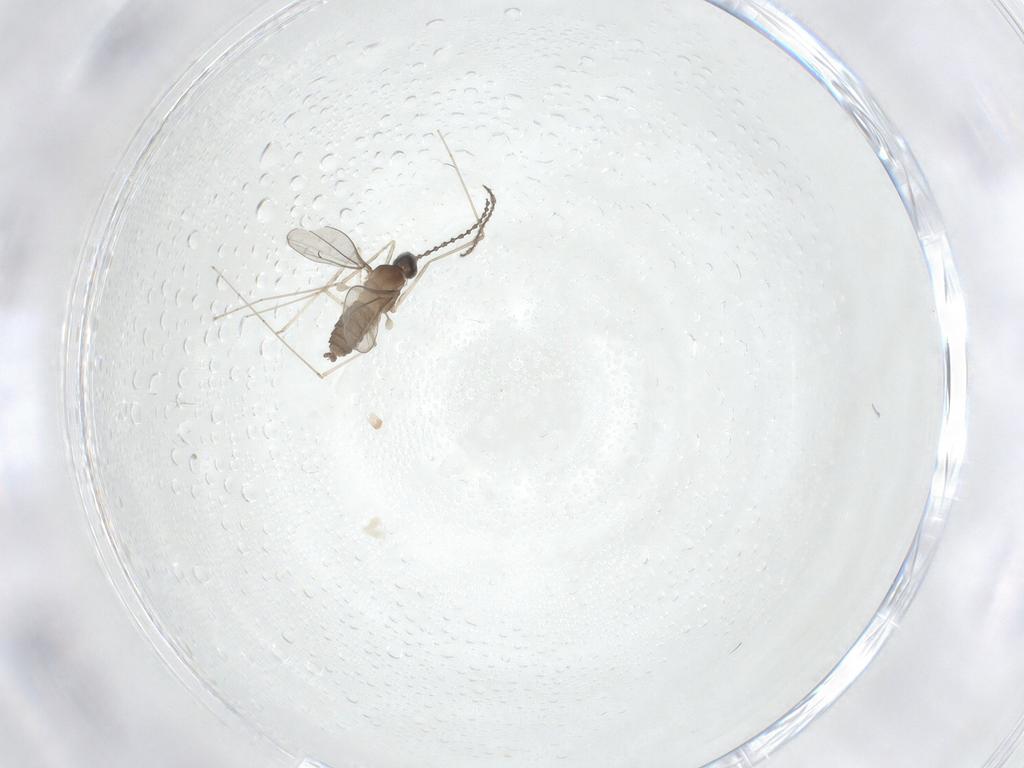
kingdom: Animalia
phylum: Arthropoda
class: Insecta
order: Diptera
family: Cecidomyiidae
